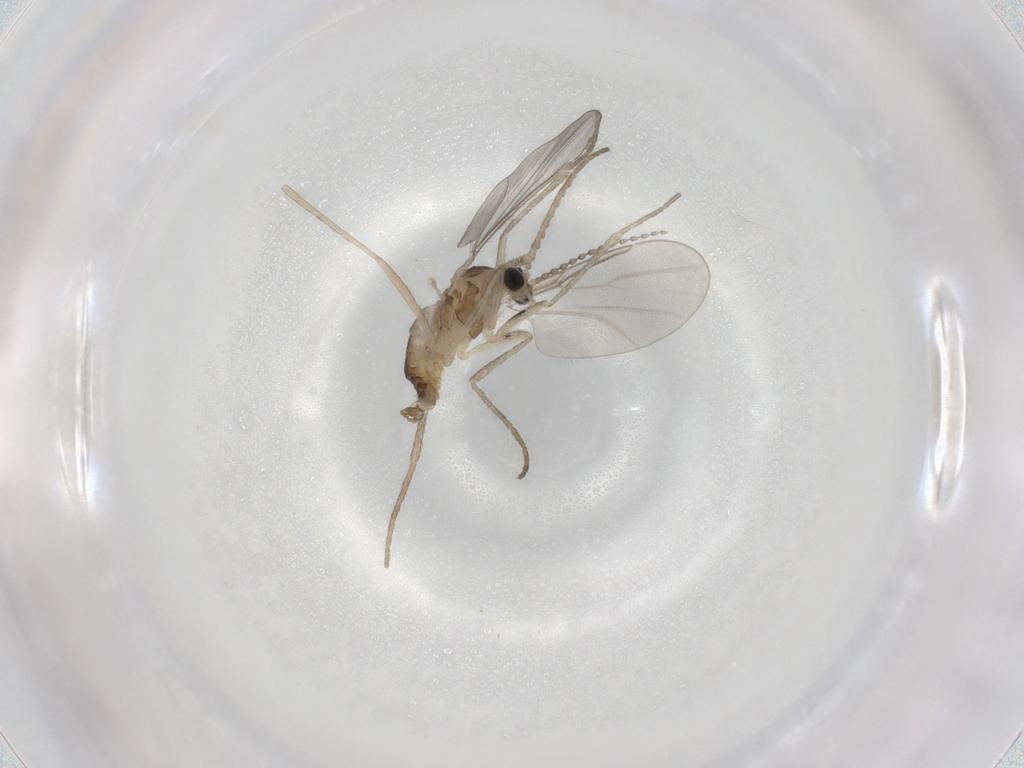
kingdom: Animalia
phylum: Arthropoda
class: Insecta
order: Diptera
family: Cecidomyiidae
